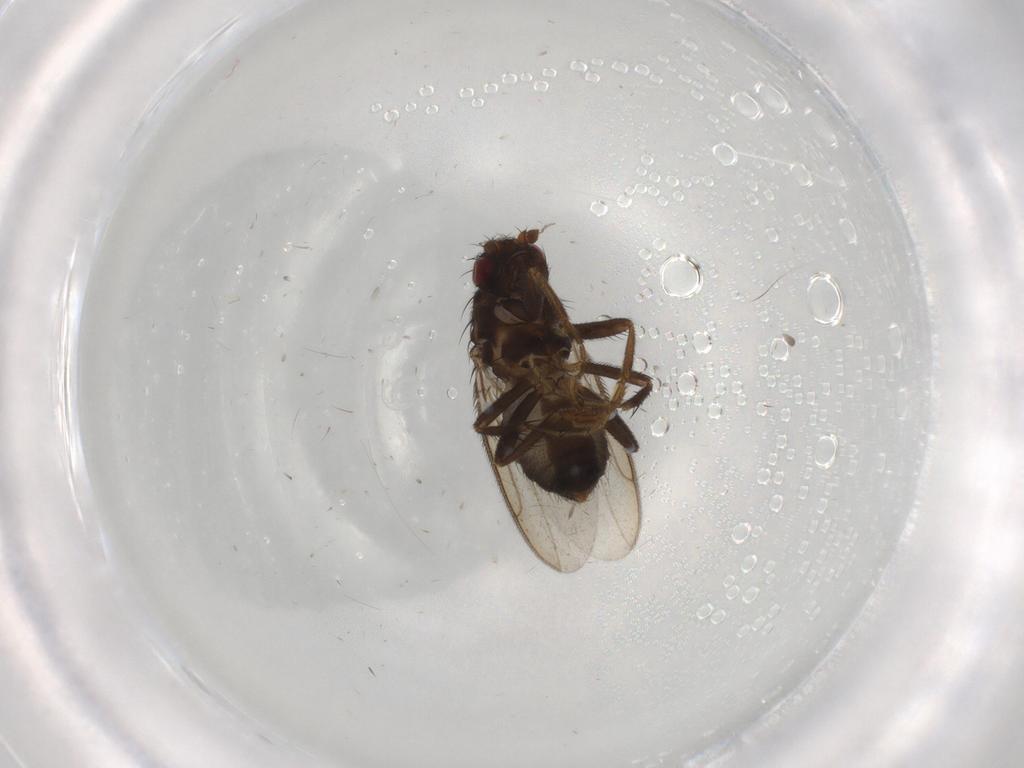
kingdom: Animalia
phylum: Arthropoda
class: Insecta
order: Diptera
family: Sphaeroceridae
